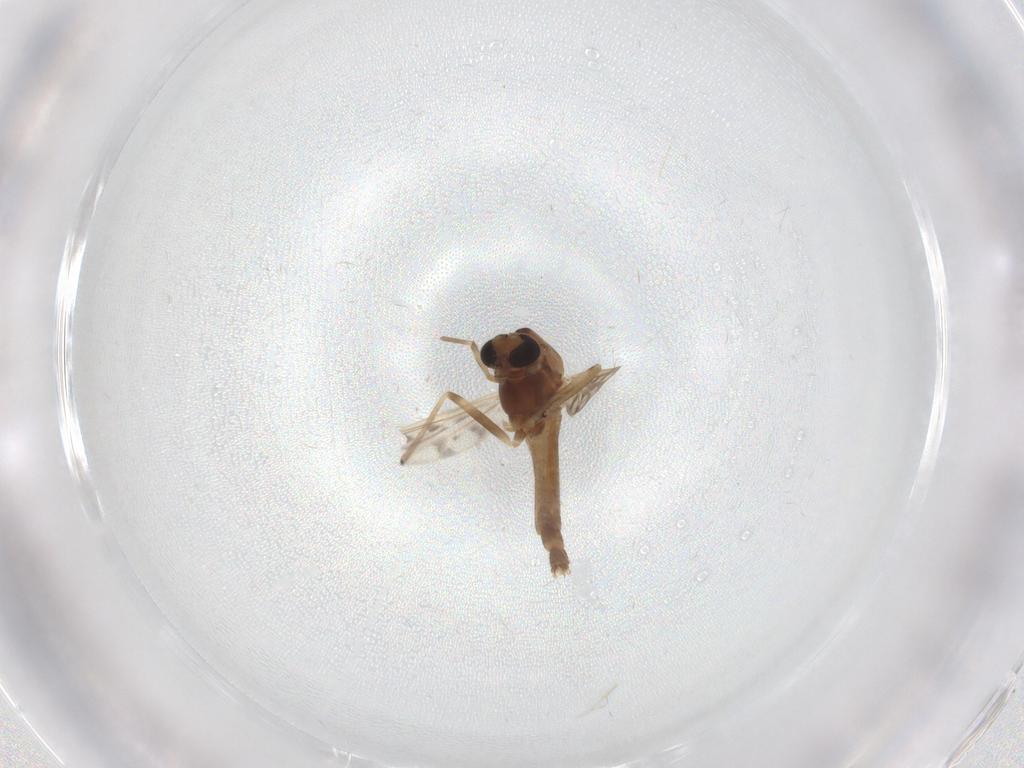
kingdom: Animalia
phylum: Arthropoda
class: Insecta
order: Diptera
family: Chironomidae
